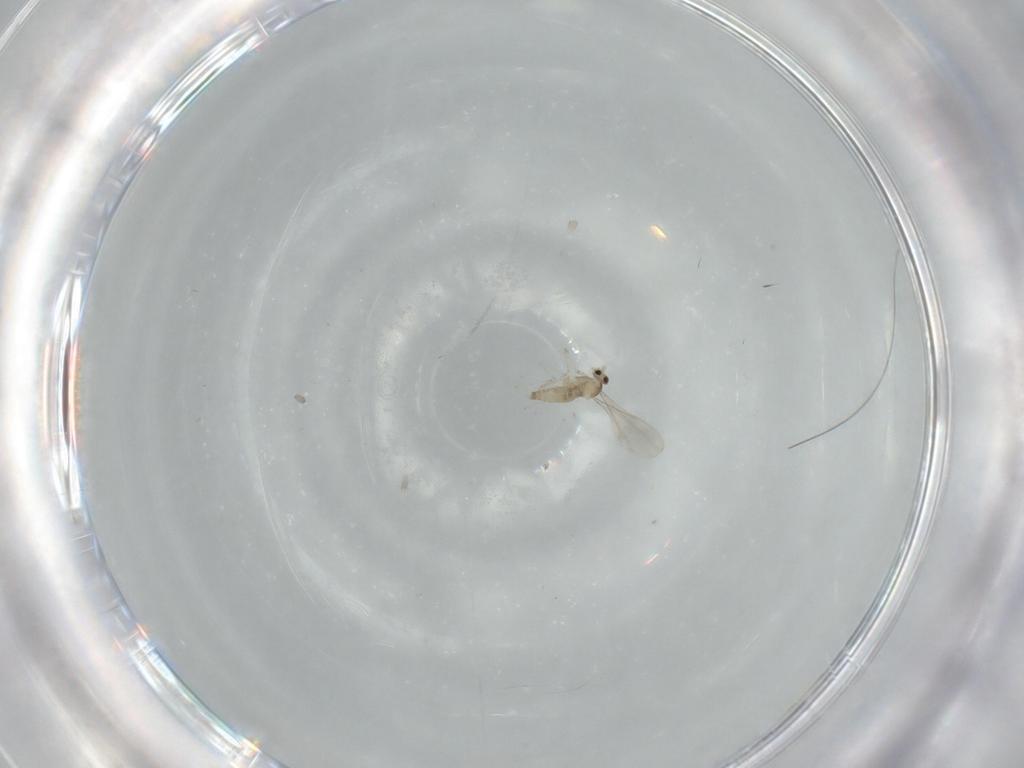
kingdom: Animalia
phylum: Arthropoda
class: Insecta
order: Diptera
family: Cecidomyiidae
